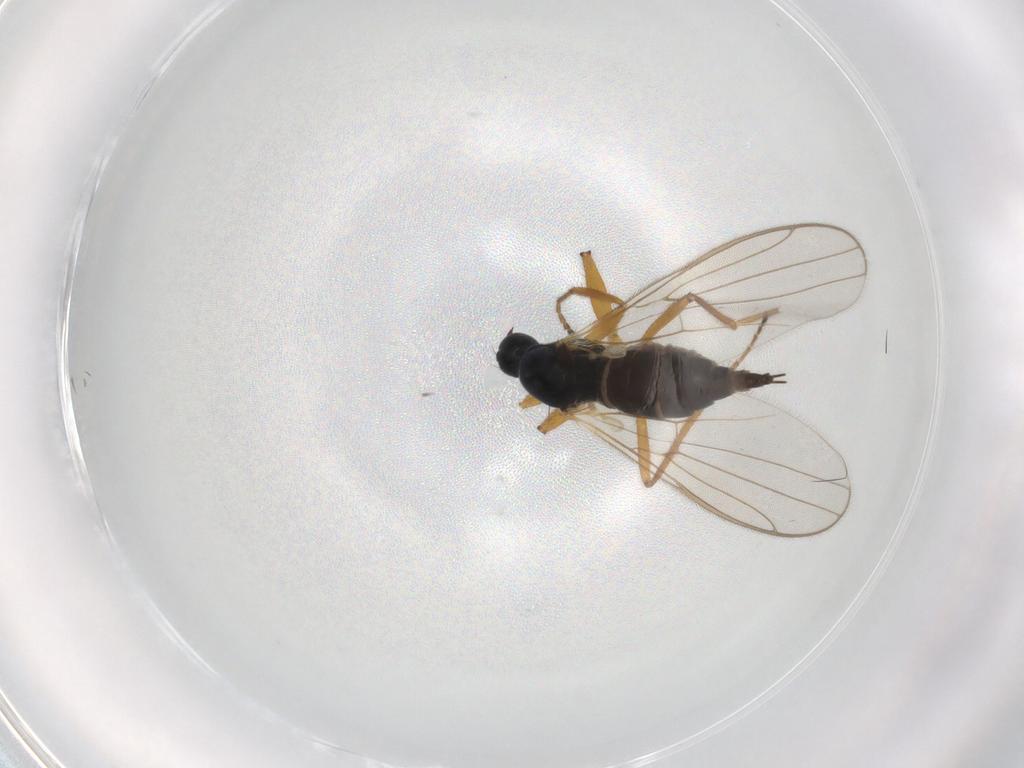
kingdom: Animalia
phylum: Arthropoda
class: Insecta
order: Diptera
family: Hybotidae
